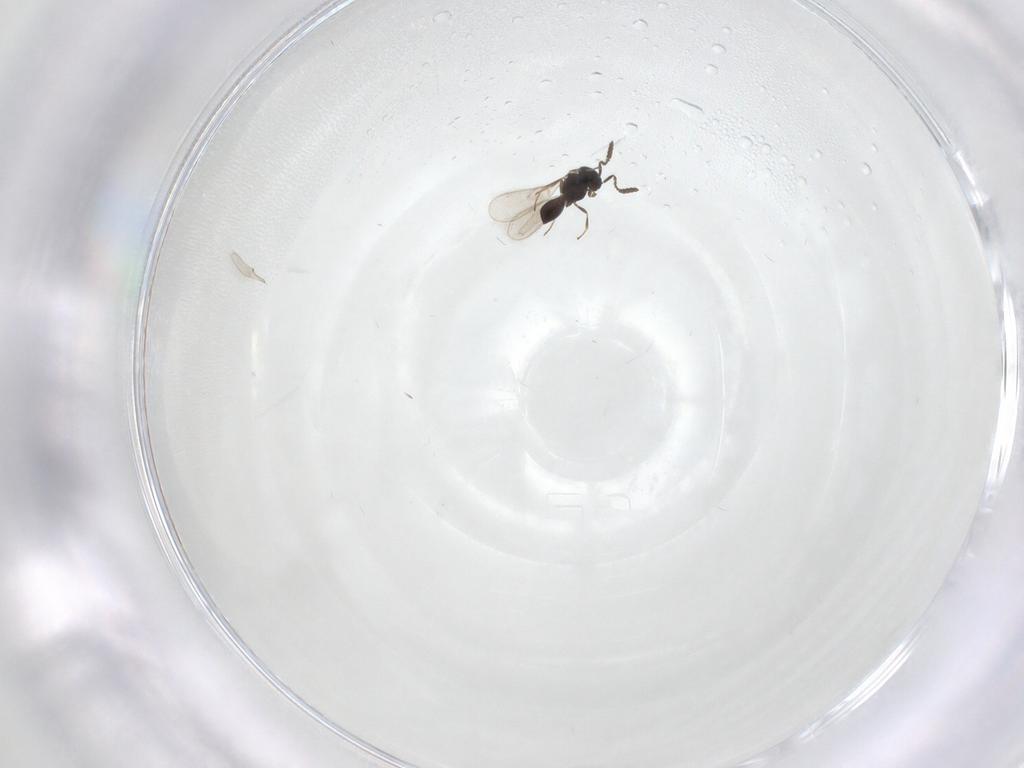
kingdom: Animalia
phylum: Arthropoda
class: Insecta
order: Hymenoptera
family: Scelionidae
